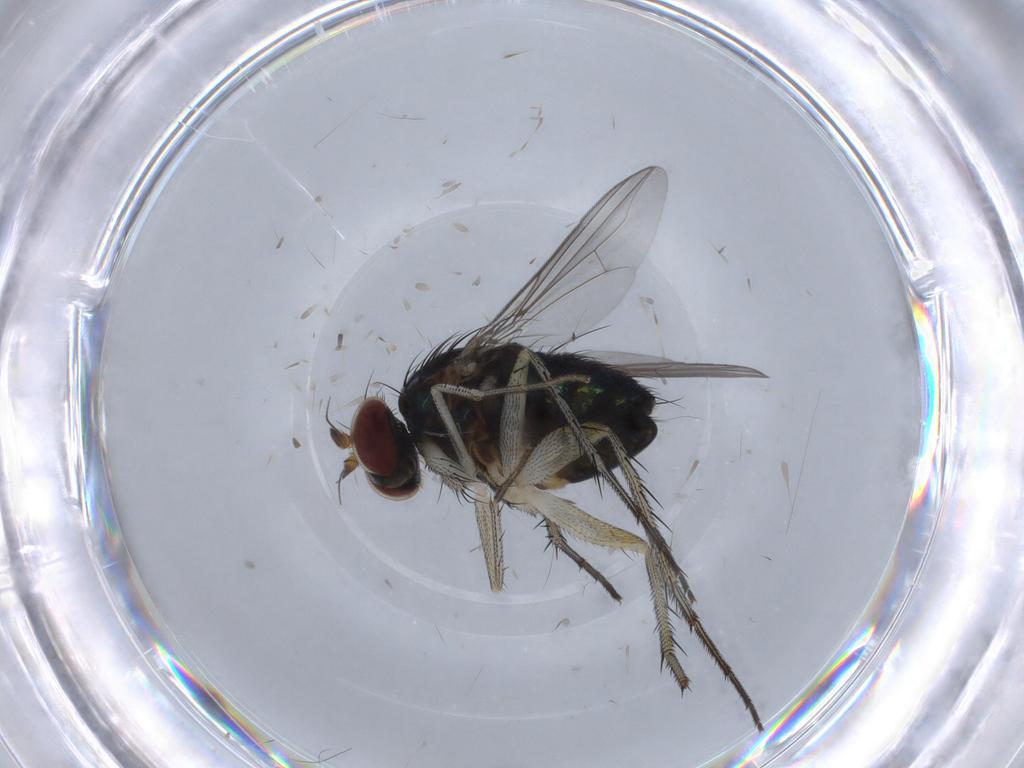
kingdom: Animalia
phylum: Arthropoda
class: Insecta
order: Diptera
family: Dolichopodidae
